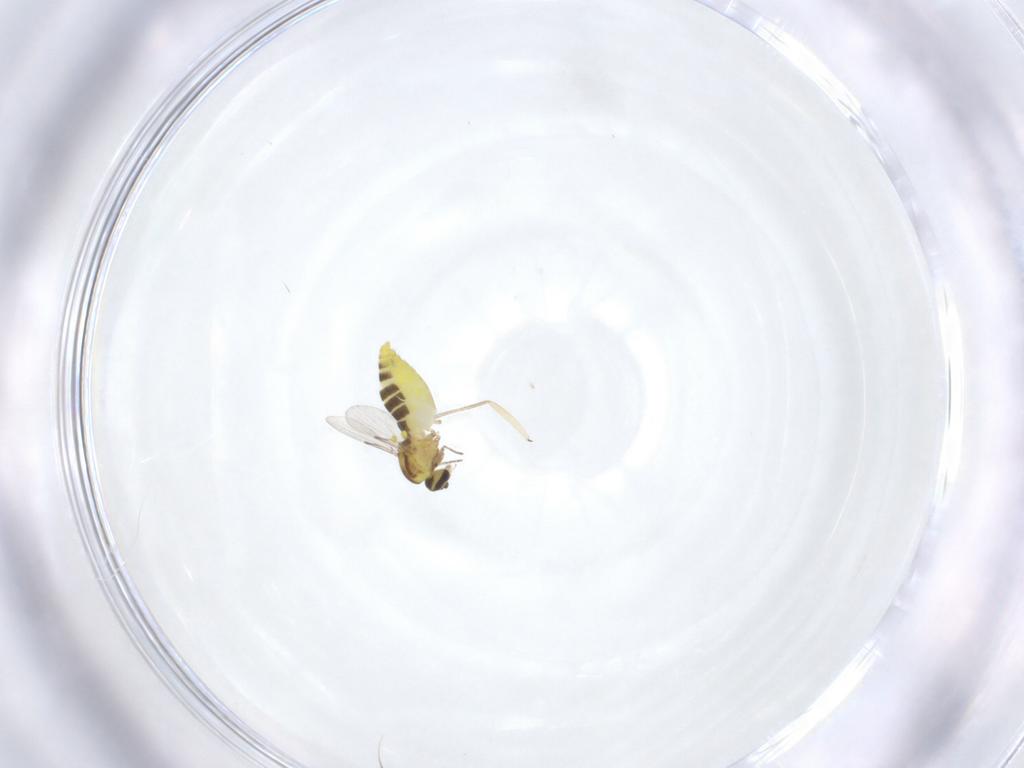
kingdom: Animalia
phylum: Arthropoda
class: Insecta
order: Diptera
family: Ceratopogonidae
